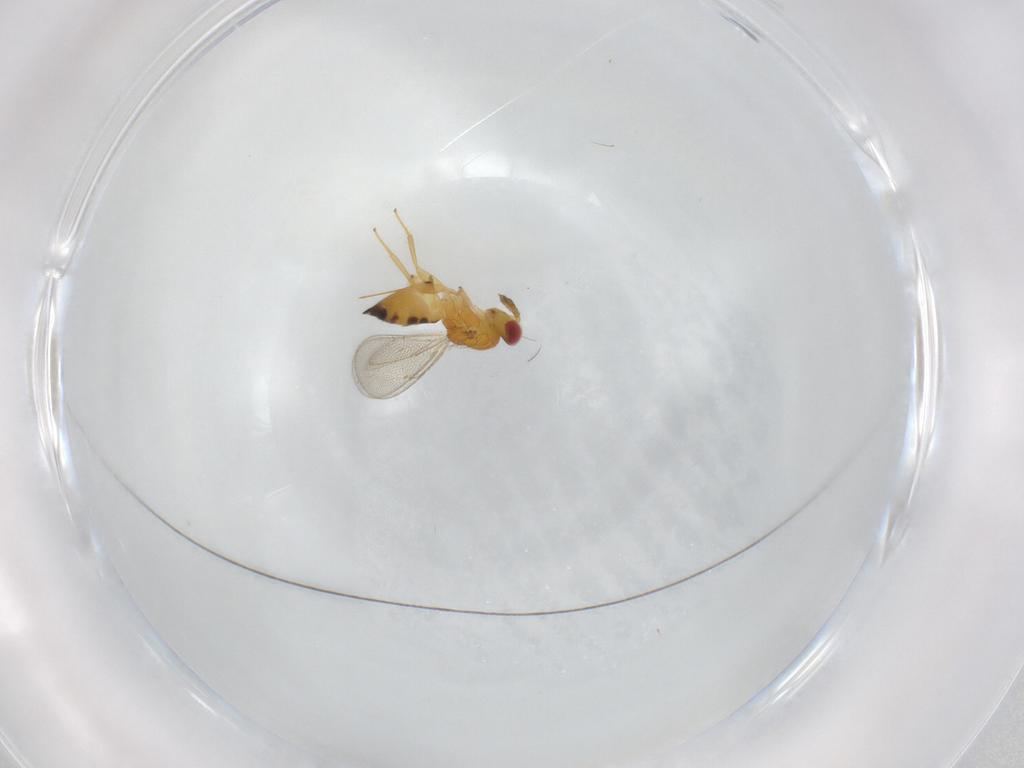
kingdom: Animalia
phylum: Arthropoda
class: Insecta
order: Hymenoptera
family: Eulophidae
